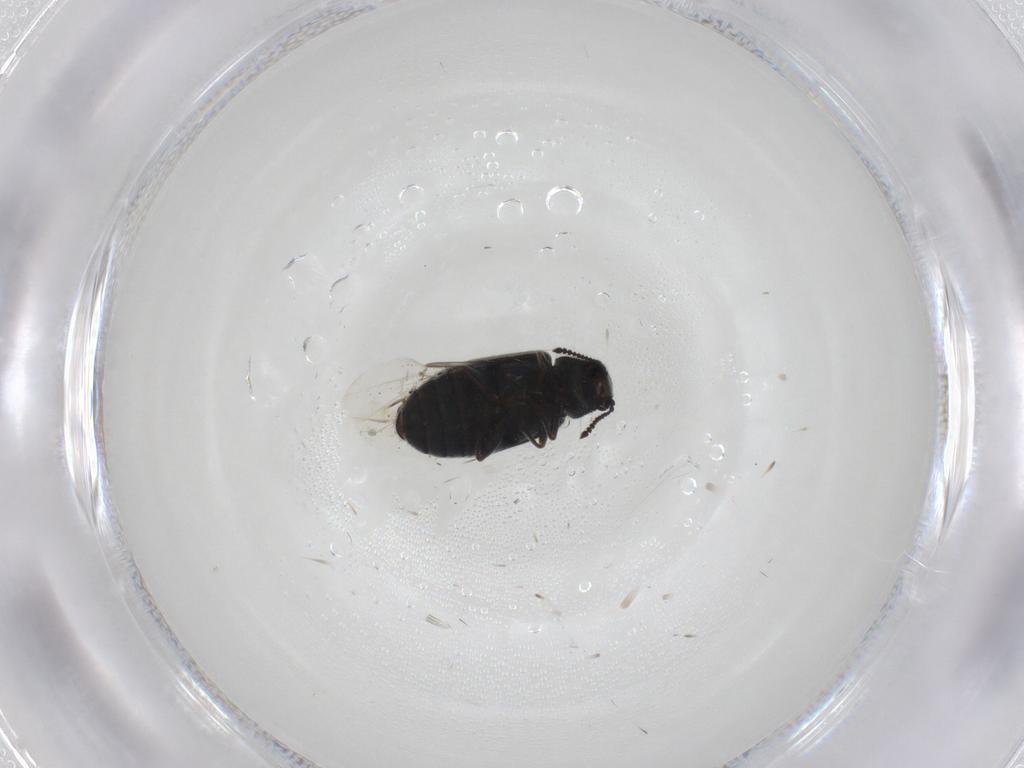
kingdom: Animalia
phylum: Arthropoda
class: Insecta
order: Coleoptera
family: Melyridae
